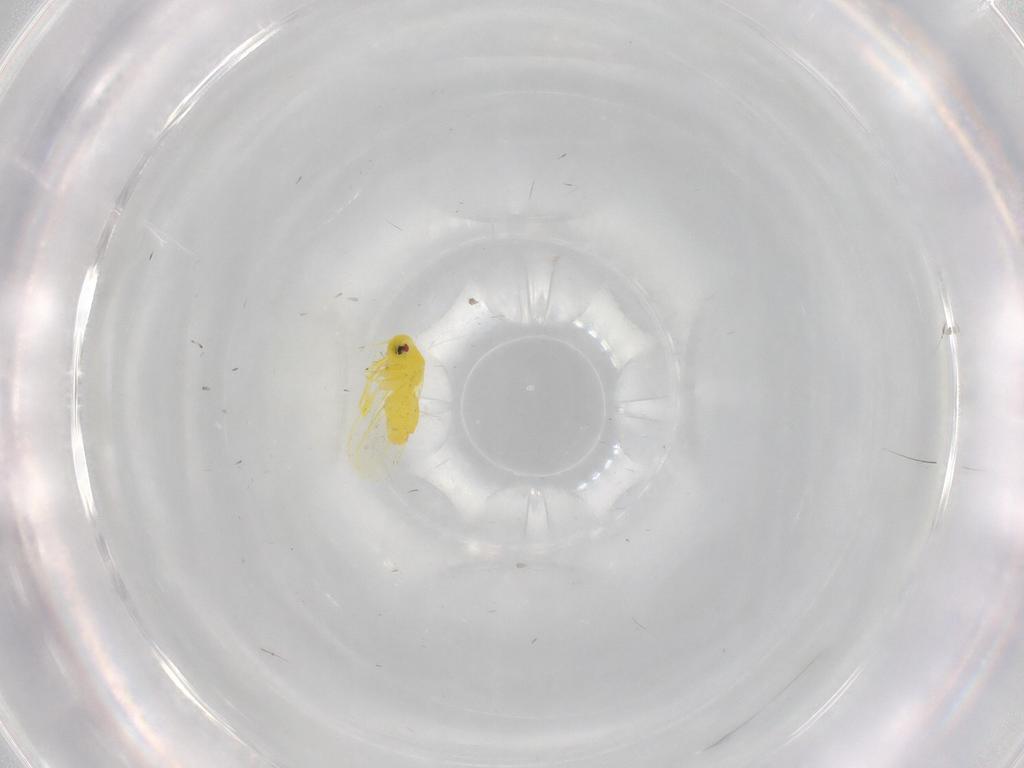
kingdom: Animalia
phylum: Arthropoda
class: Insecta
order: Hemiptera
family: Aleyrodidae
